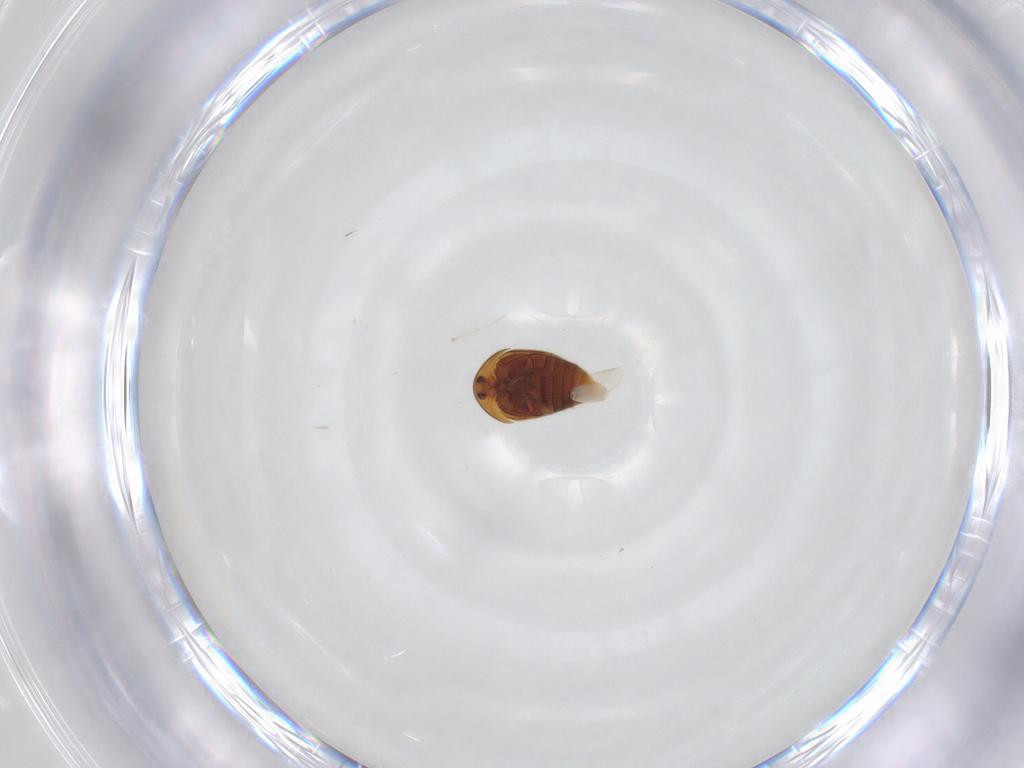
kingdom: Animalia
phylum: Arthropoda
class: Insecta
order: Coleoptera
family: Corylophidae
